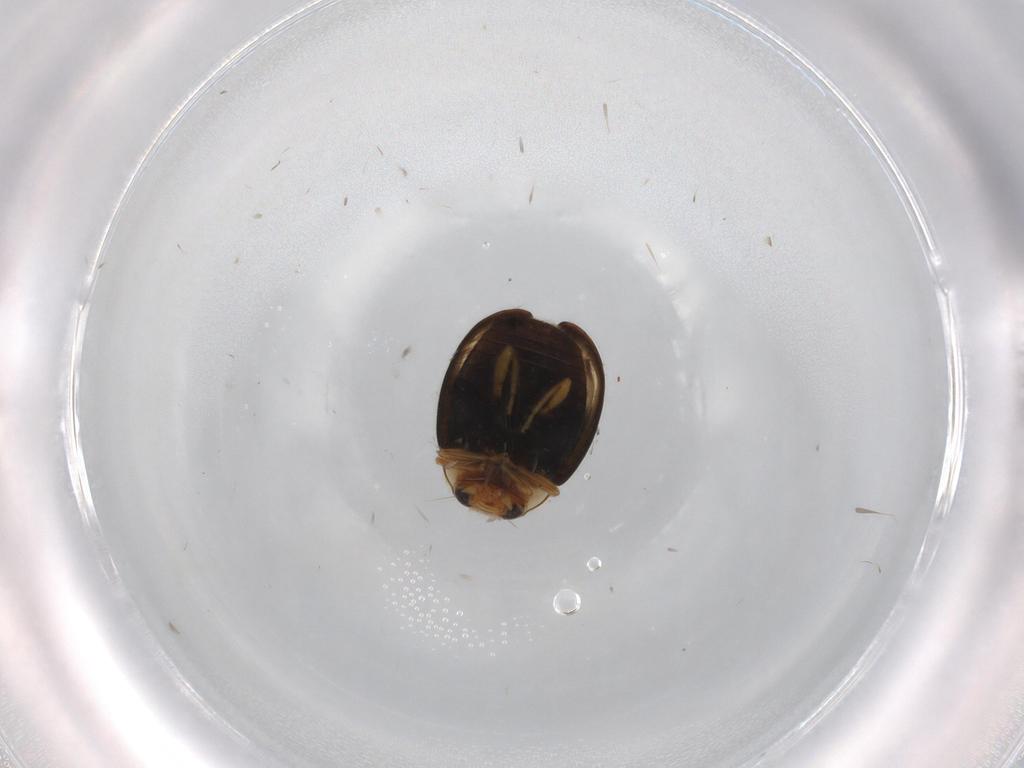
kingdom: Animalia
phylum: Arthropoda
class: Insecta
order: Coleoptera
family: Coccinellidae
